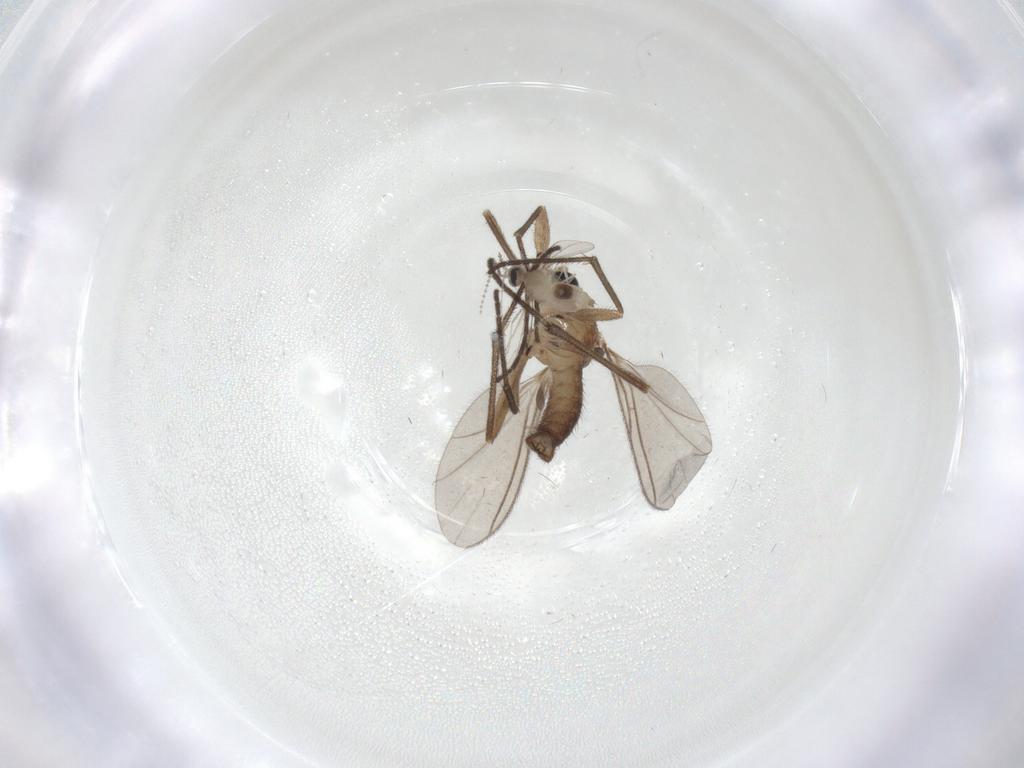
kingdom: Animalia
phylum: Arthropoda
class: Insecta
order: Diptera
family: Sciaridae
